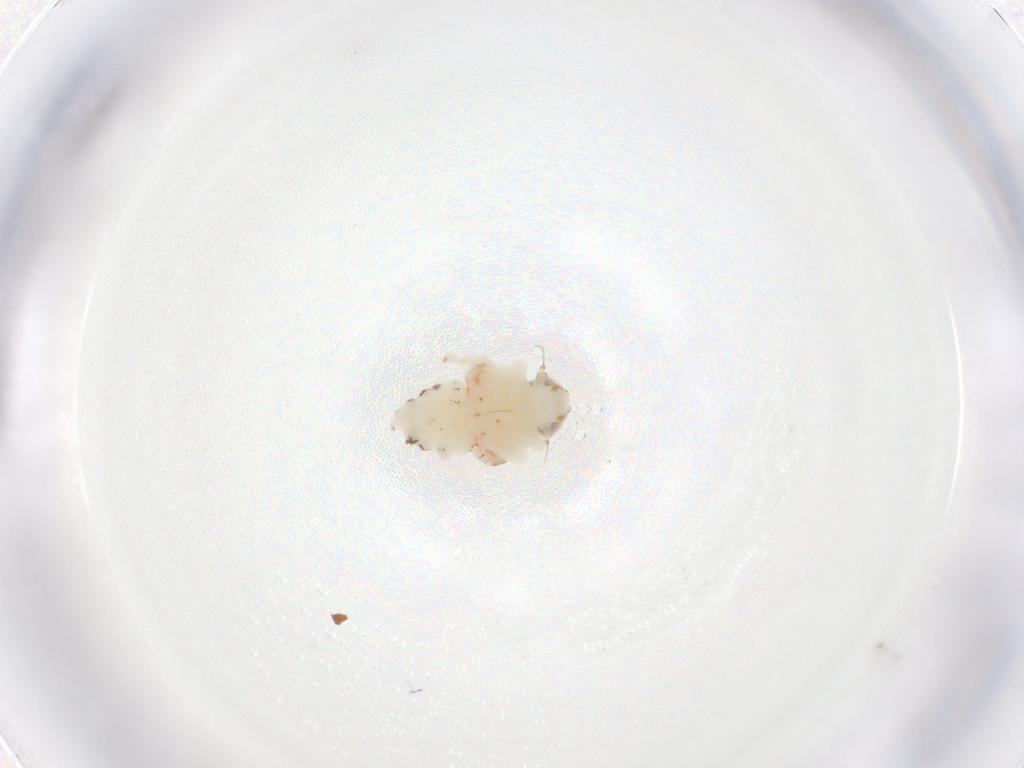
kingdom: Animalia
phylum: Arthropoda
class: Insecta
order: Hemiptera
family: Nogodinidae
